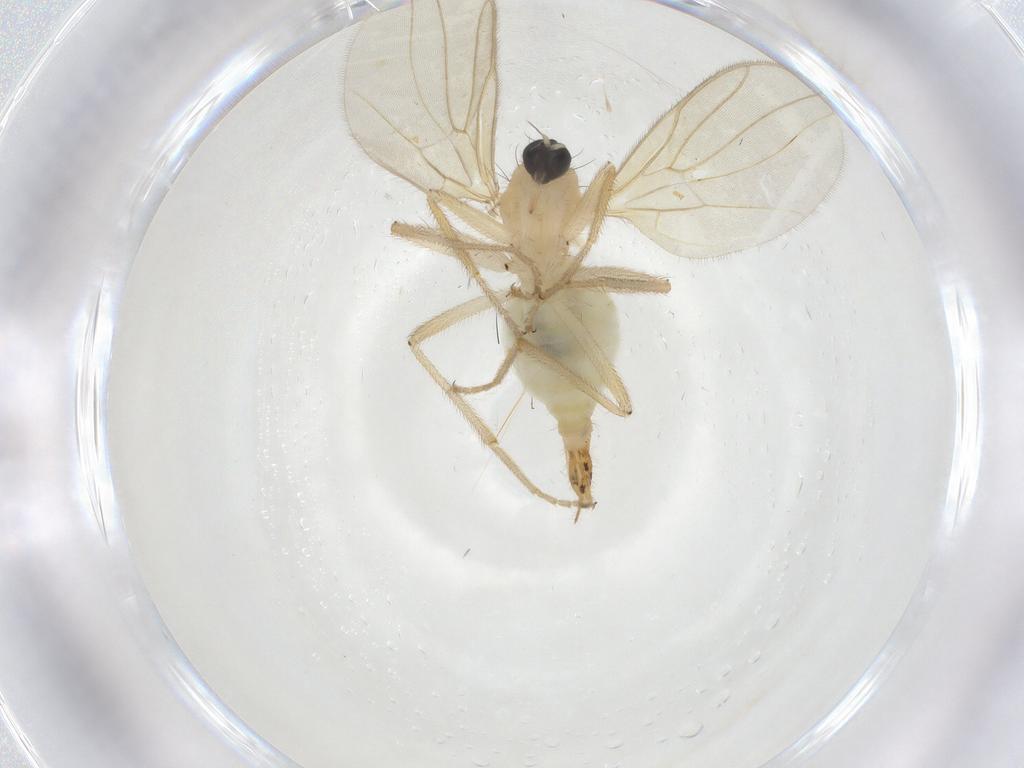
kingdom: Animalia
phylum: Arthropoda
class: Insecta
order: Diptera
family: Hybotidae
